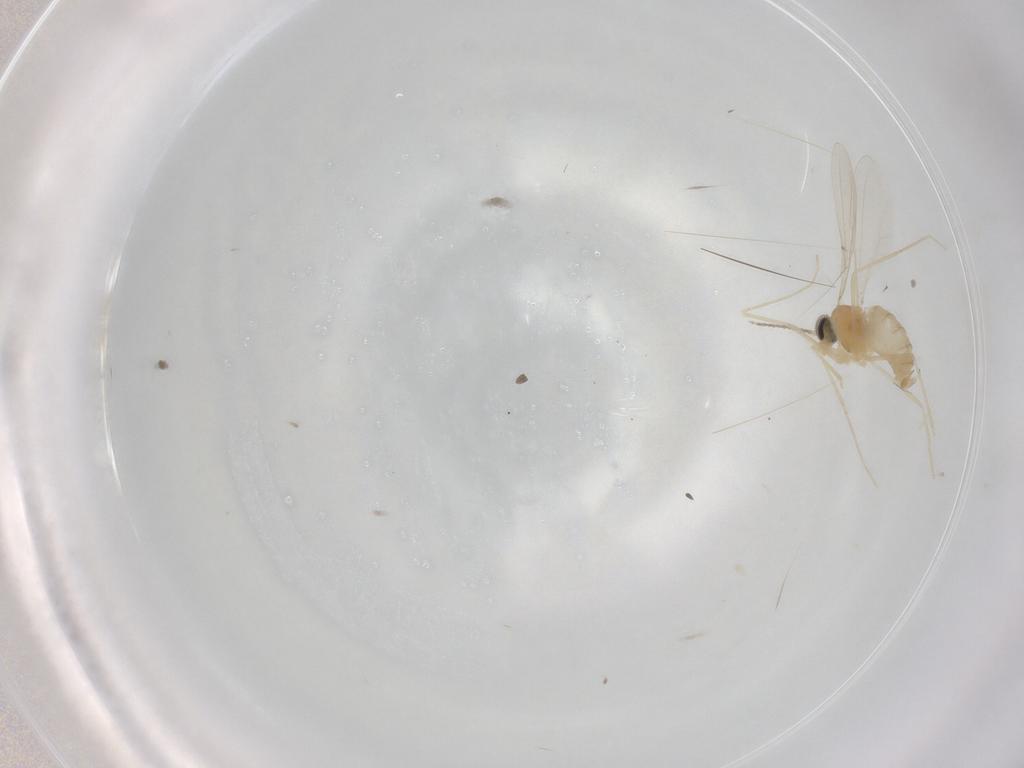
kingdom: Animalia
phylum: Arthropoda
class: Insecta
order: Diptera
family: Cecidomyiidae
